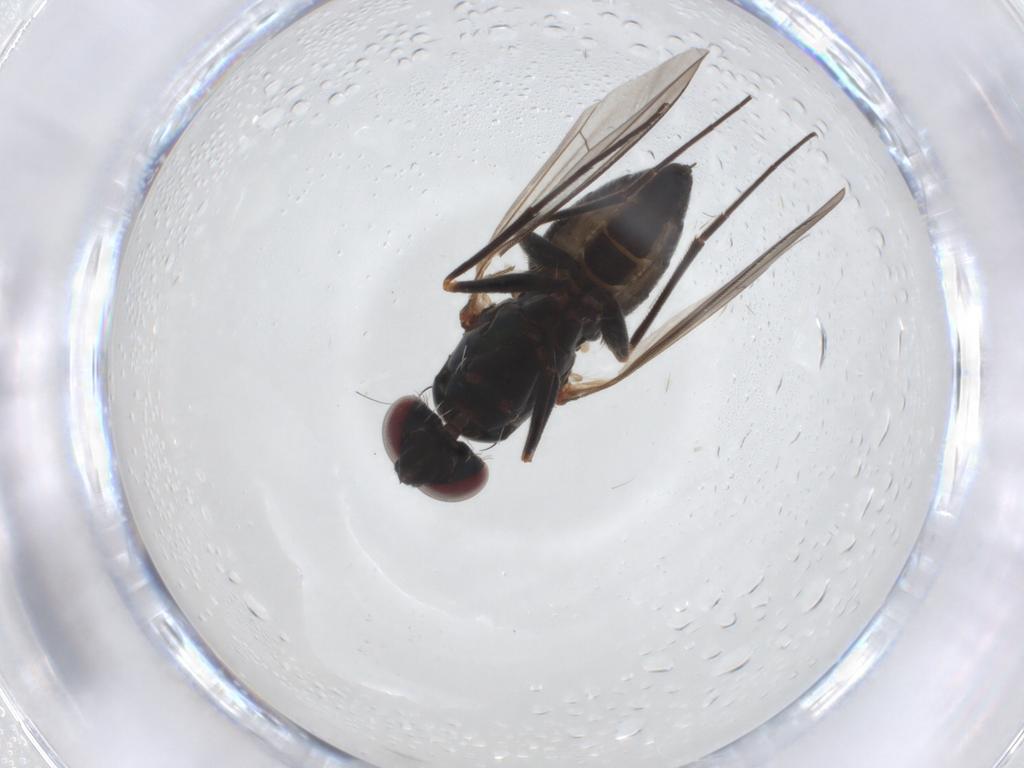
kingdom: Animalia
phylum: Arthropoda
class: Insecta
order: Diptera
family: Dolichopodidae
